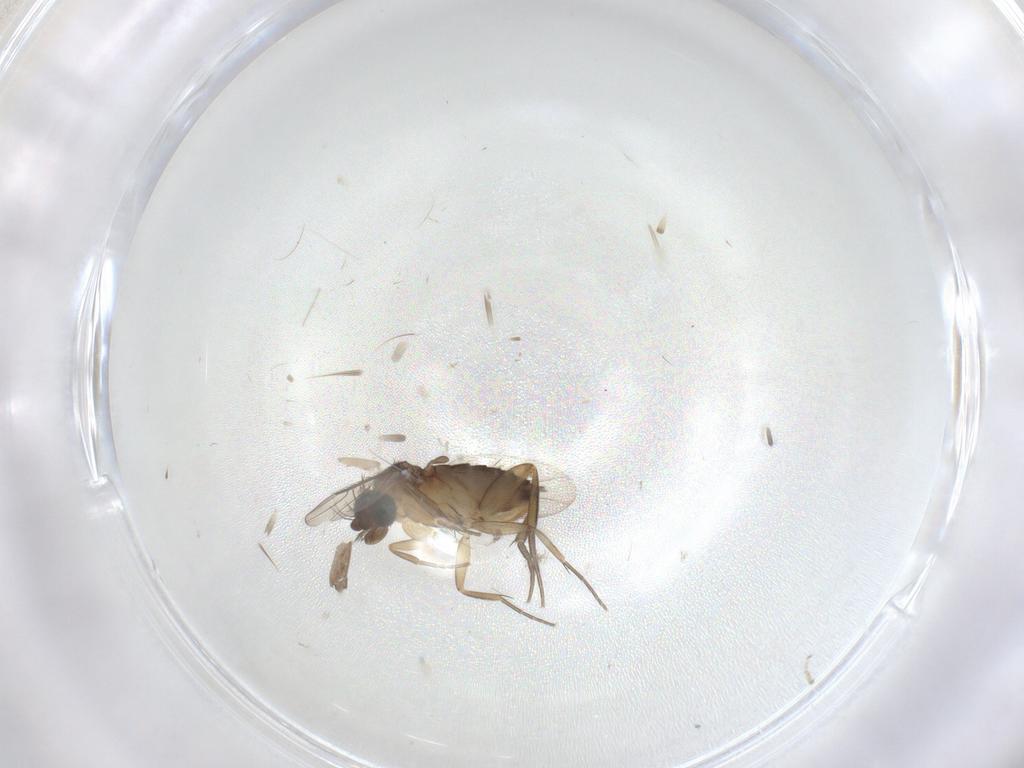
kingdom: Animalia
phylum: Arthropoda
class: Insecta
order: Diptera
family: Phoridae
